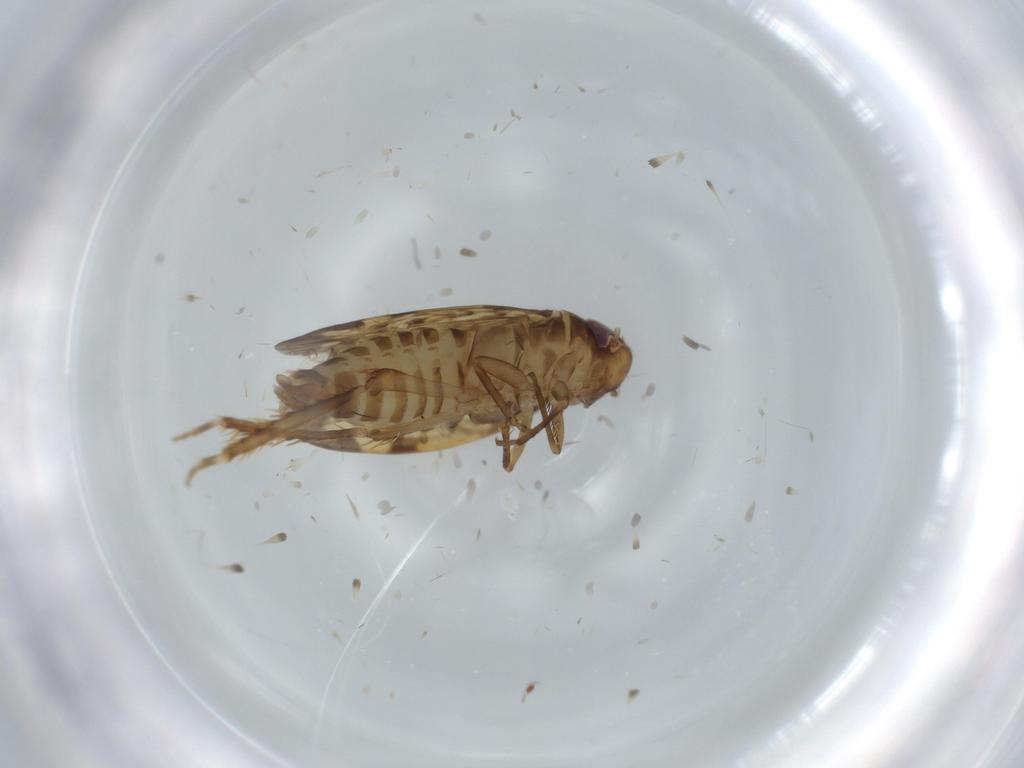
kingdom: Animalia
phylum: Arthropoda
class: Insecta
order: Hemiptera
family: Cicadellidae
